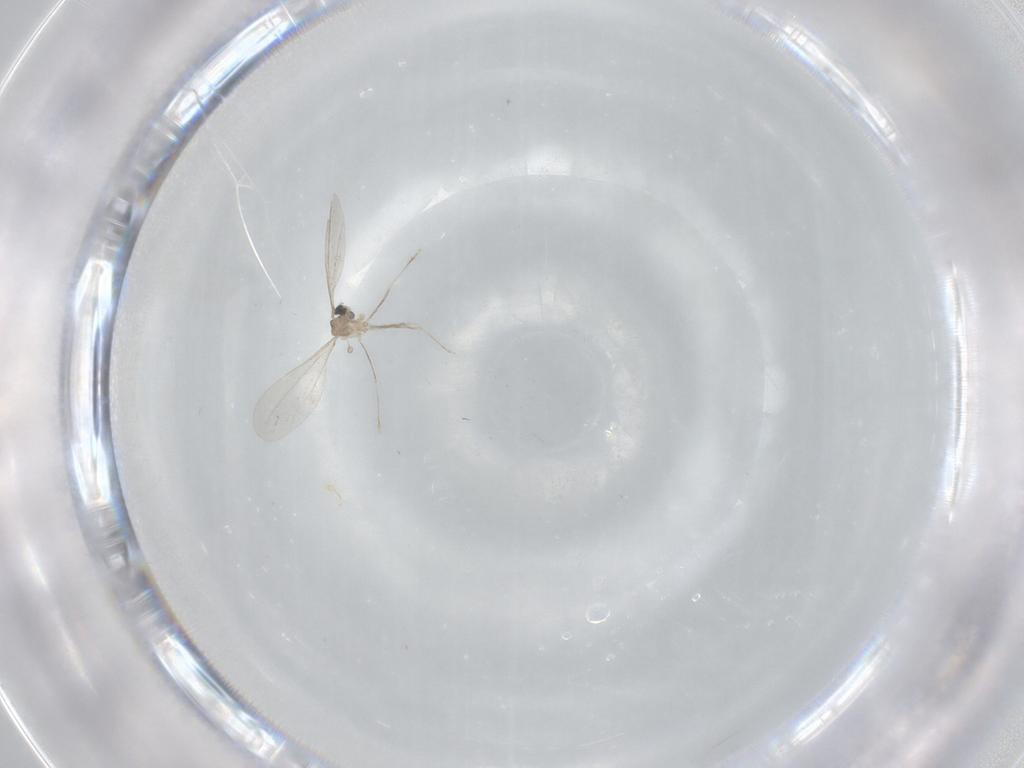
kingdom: Animalia
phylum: Arthropoda
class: Insecta
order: Diptera
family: Cecidomyiidae
